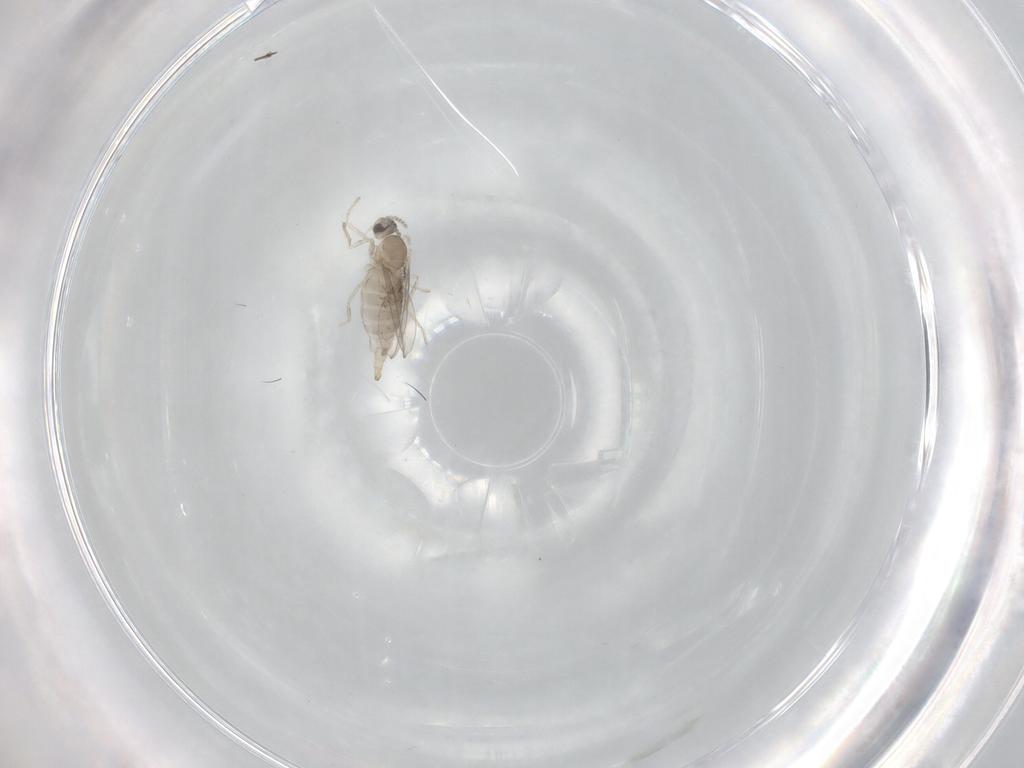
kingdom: Animalia
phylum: Arthropoda
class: Insecta
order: Diptera
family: Cecidomyiidae
